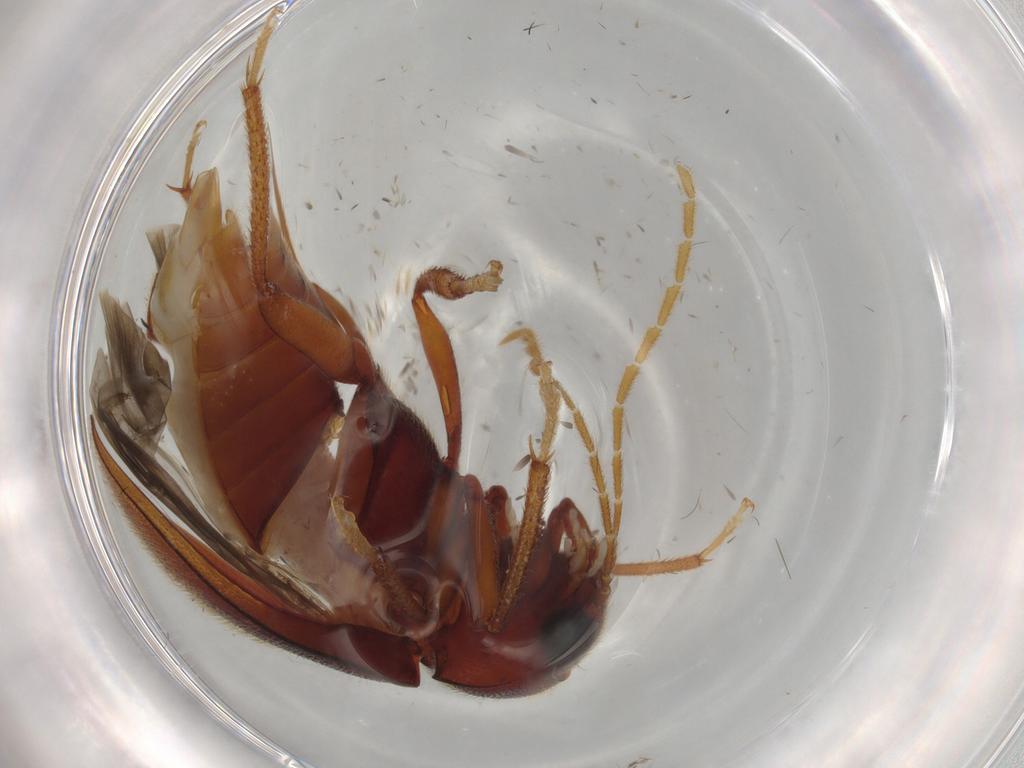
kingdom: Animalia
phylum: Arthropoda
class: Insecta
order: Coleoptera
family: Ptilodactylidae
